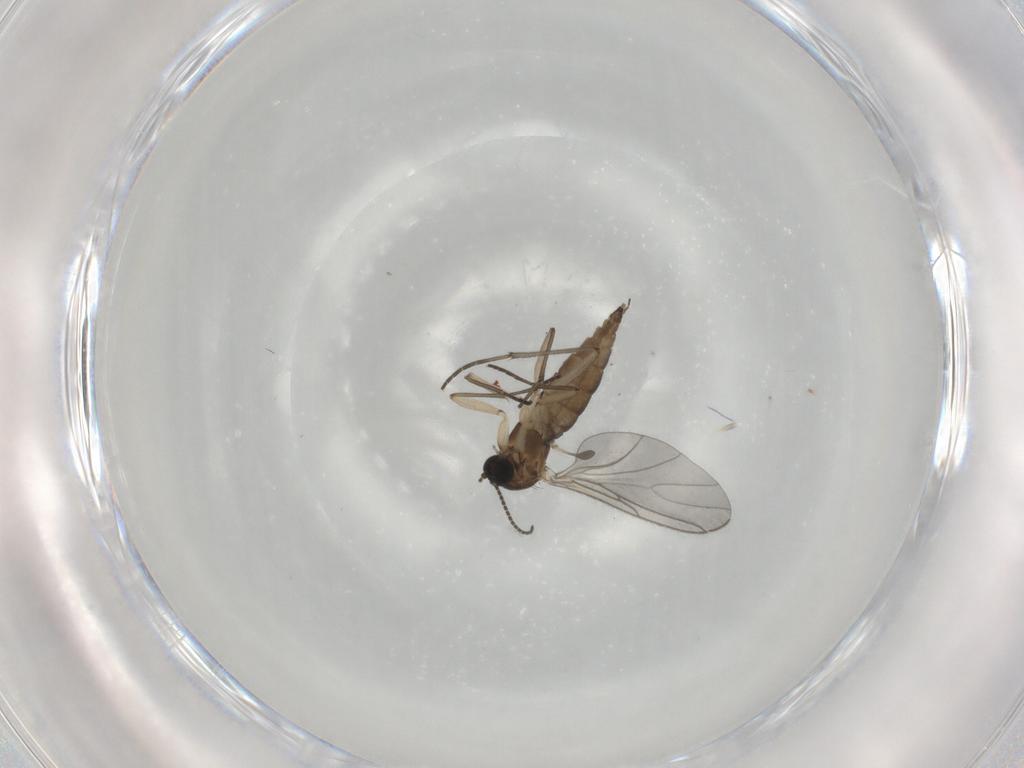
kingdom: Animalia
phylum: Arthropoda
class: Insecta
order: Diptera
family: Sciaridae
